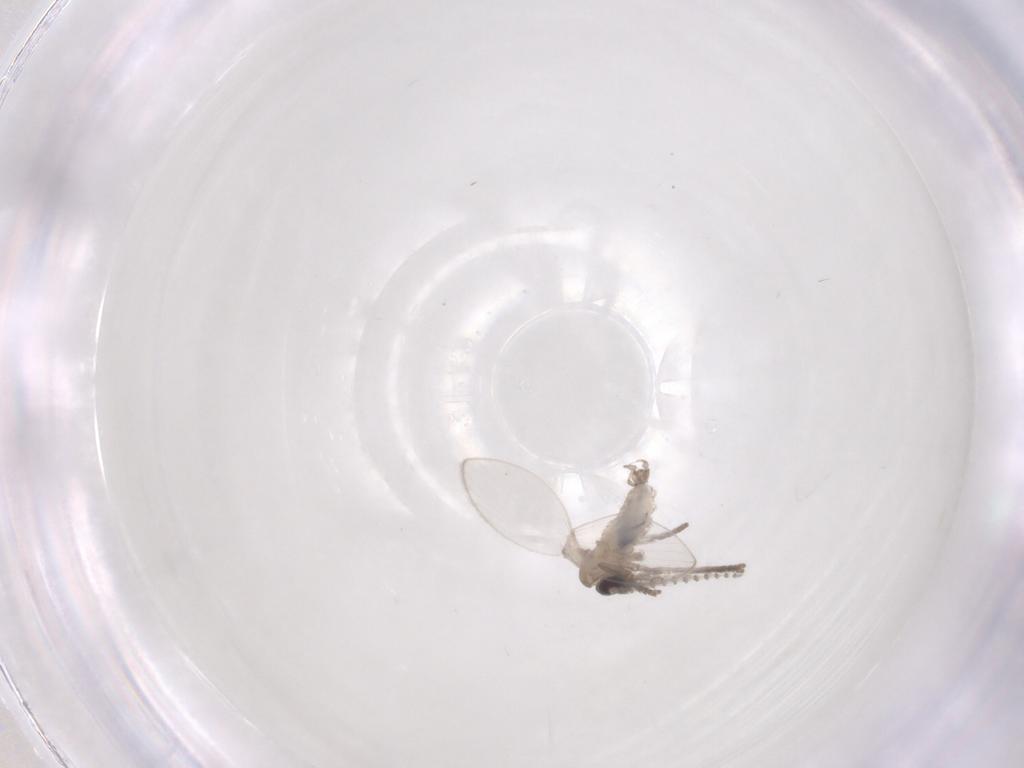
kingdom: Animalia
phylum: Arthropoda
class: Insecta
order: Diptera
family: Psychodidae
